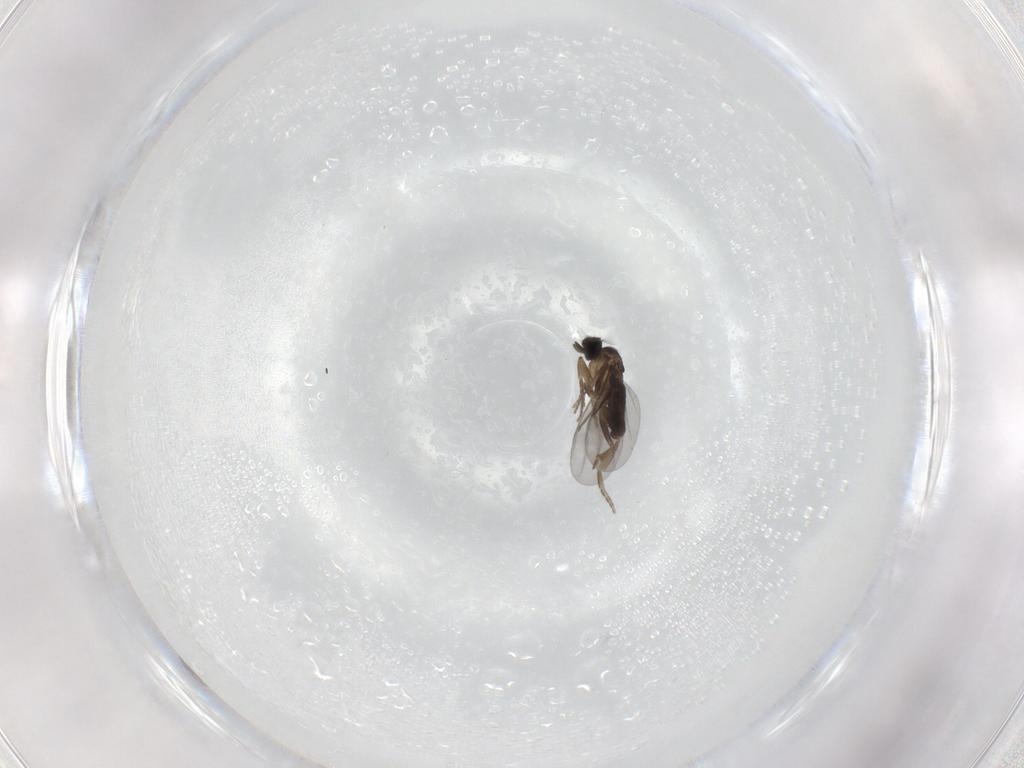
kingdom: Animalia
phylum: Arthropoda
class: Insecta
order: Diptera
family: Phoridae
